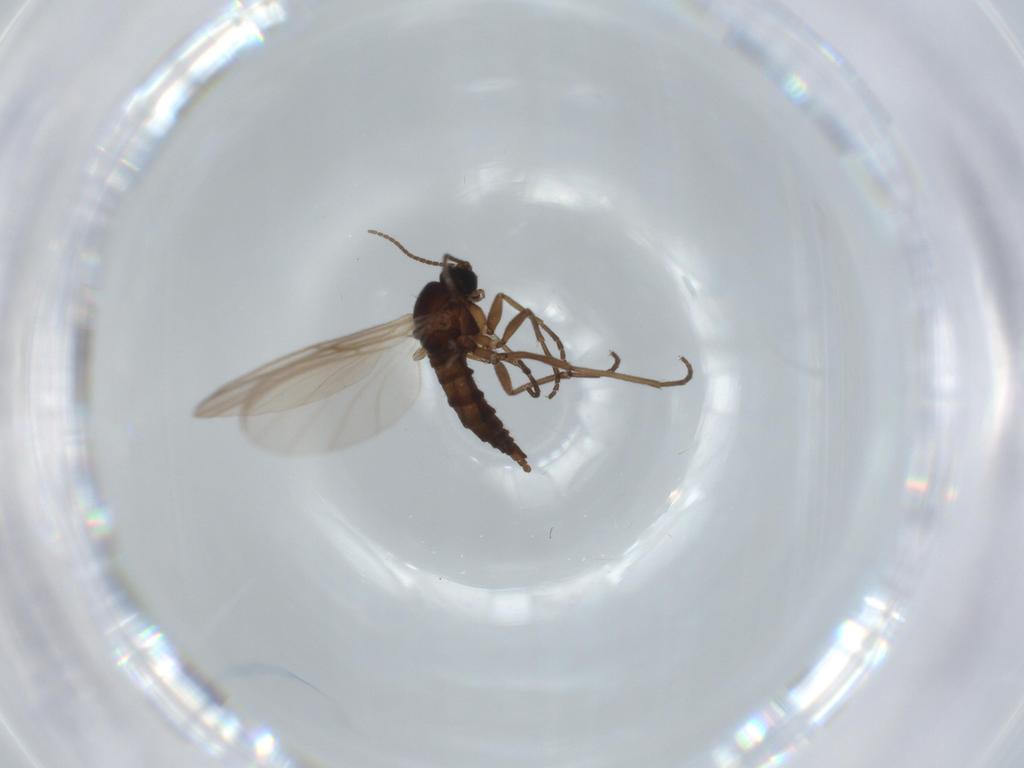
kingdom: Animalia
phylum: Arthropoda
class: Insecta
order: Diptera
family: Sciaridae
